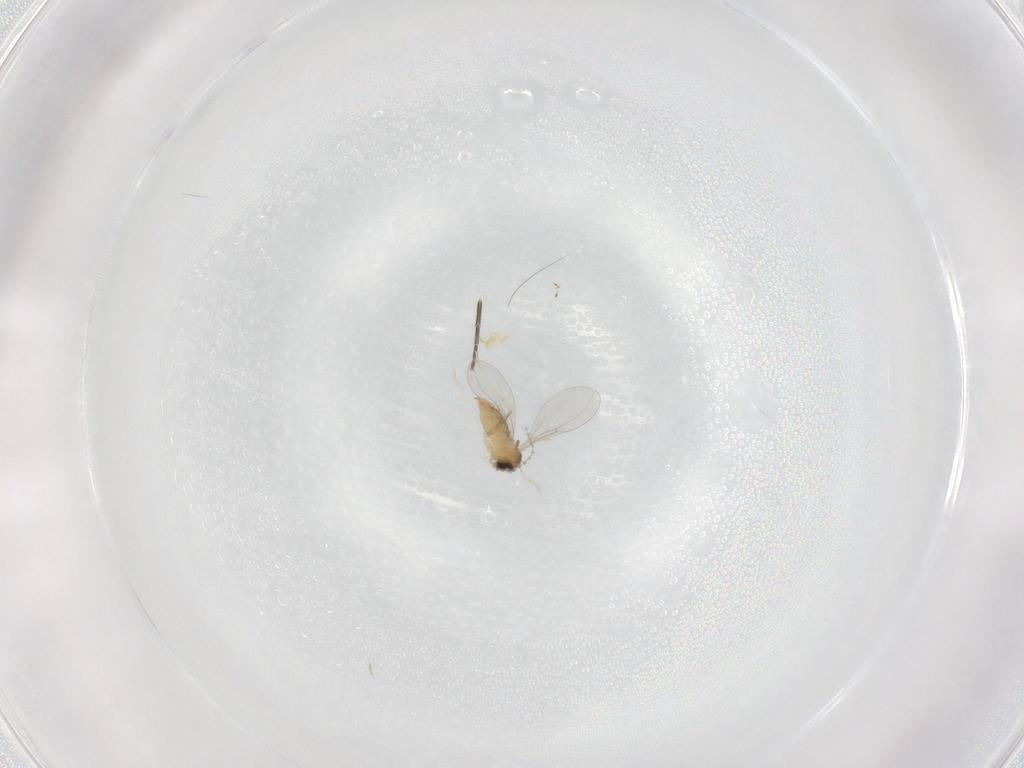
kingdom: Animalia
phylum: Arthropoda
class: Insecta
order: Diptera
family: Cecidomyiidae
